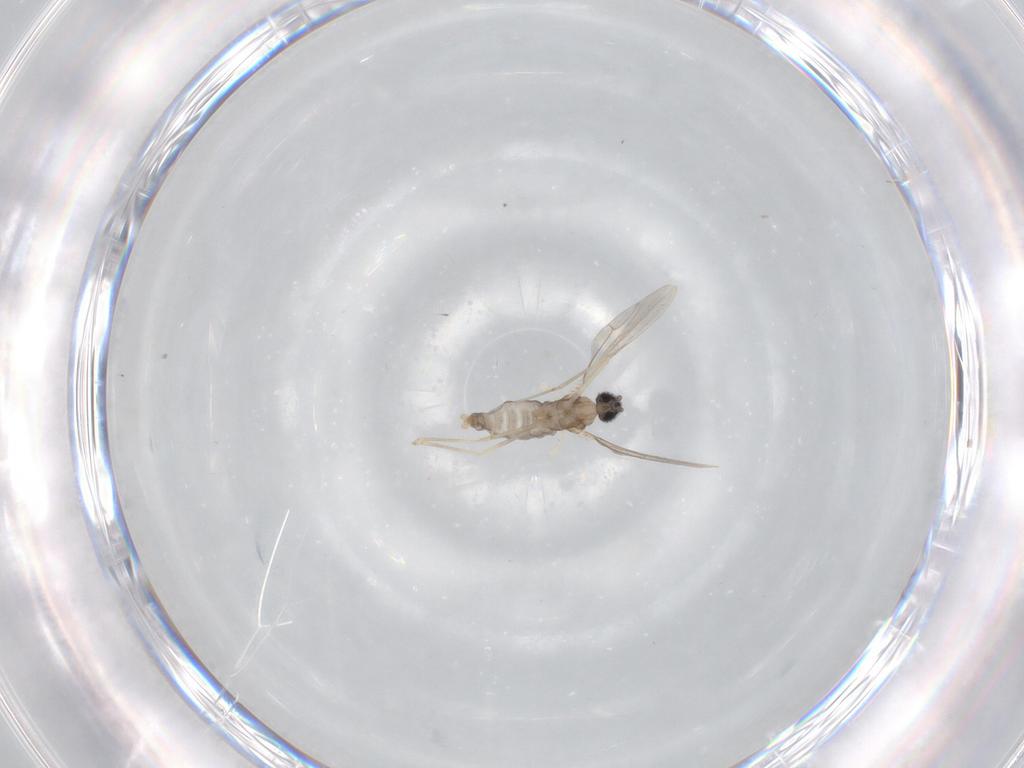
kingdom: Animalia
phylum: Arthropoda
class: Insecta
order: Diptera
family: Cecidomyiidae
